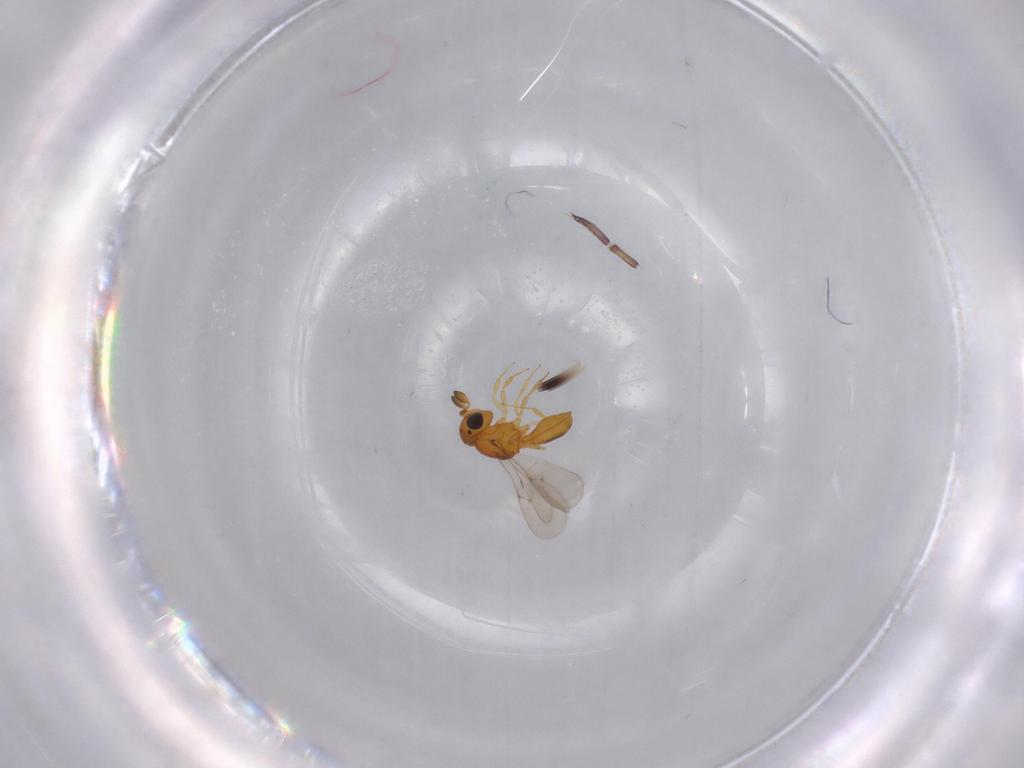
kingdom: Animalia
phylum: Arthropoda
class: Insecta
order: Hymenoptera
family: Scelionidae
